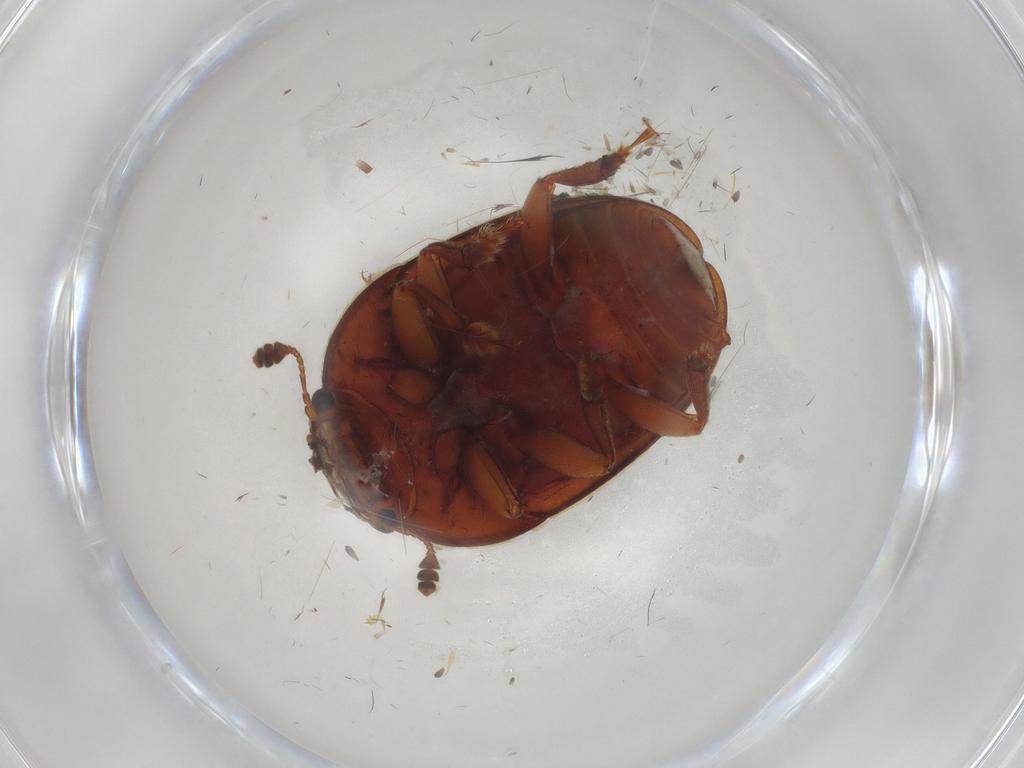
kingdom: Animalia
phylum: Arthropoda
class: Insecta
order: Coleoptera
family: Nitidulidae
